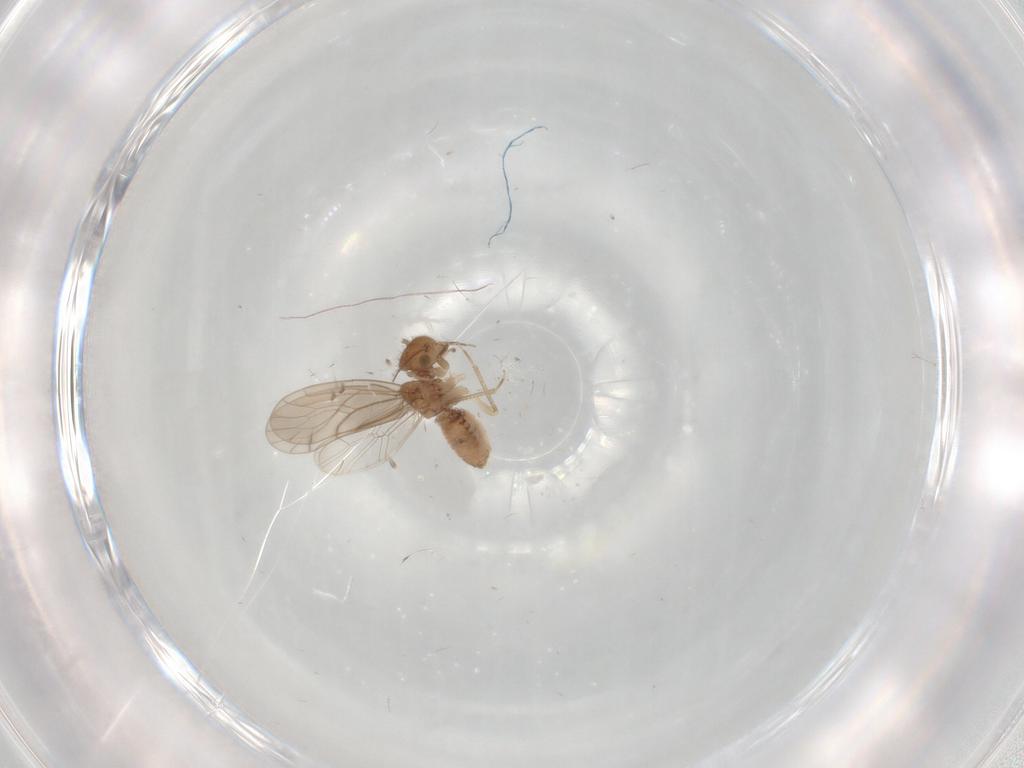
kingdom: Animalia
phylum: Arthropoda
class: Insecta
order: Psocodea
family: Ectopsocidae
